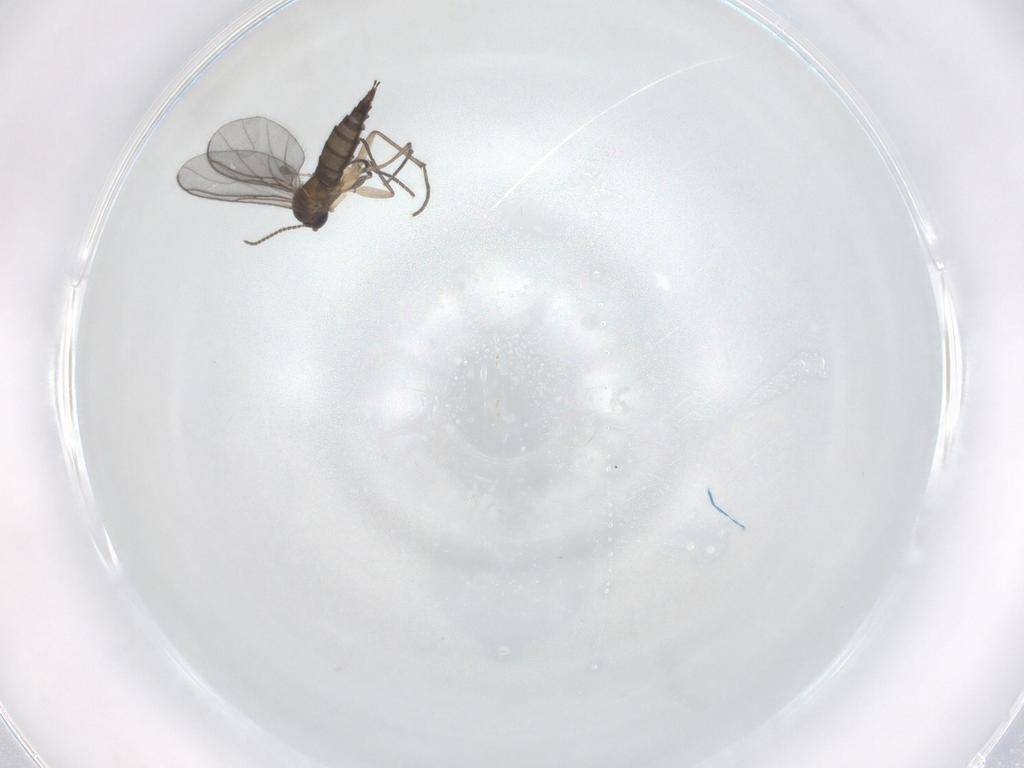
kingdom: Animalia
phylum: Arthropoda
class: Insecta
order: Diptera
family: Sciaridae
